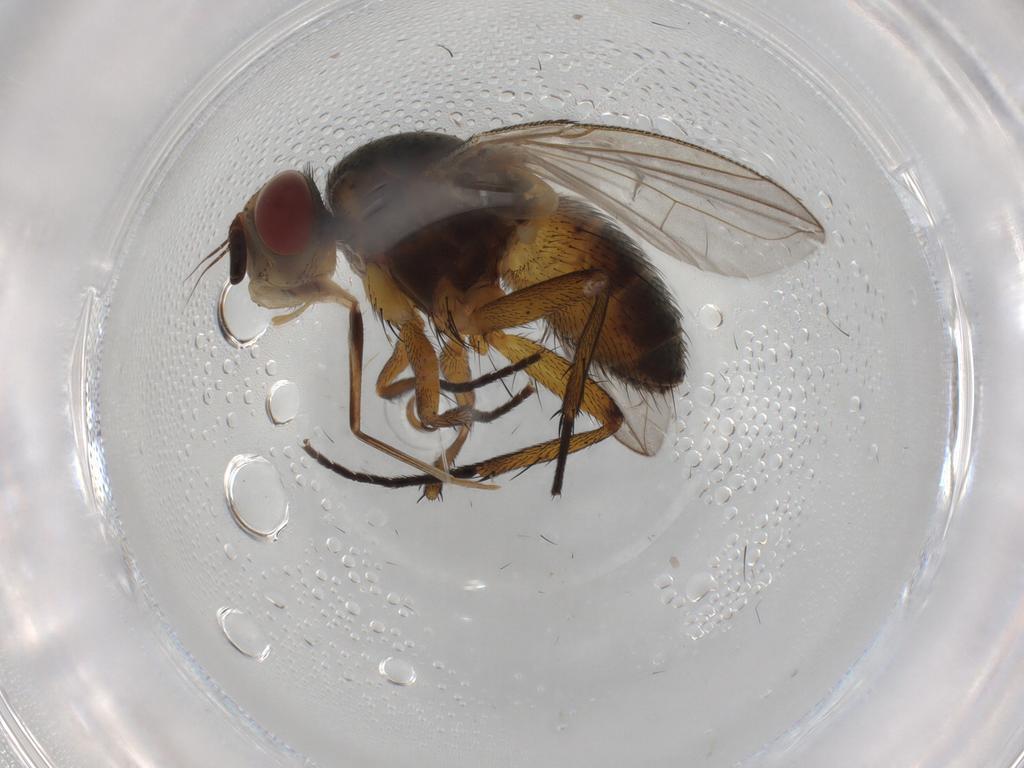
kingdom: Animalia
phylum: Arthropoda
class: Insecta
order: Diptera
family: Tachinidae
